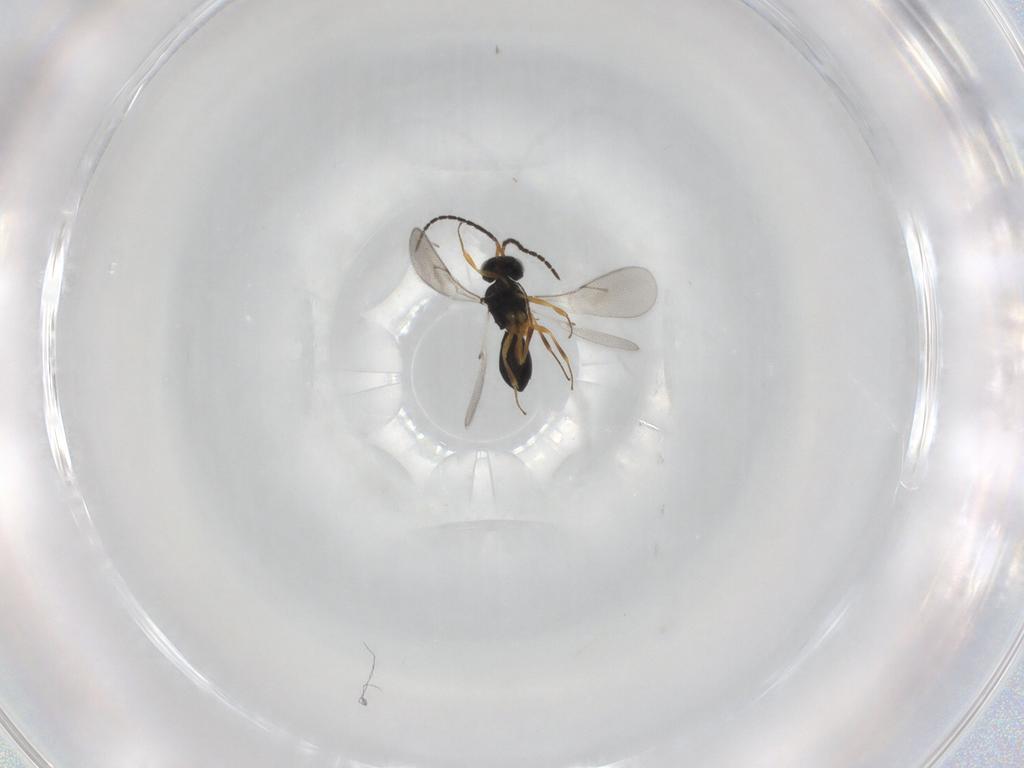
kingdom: Animalia
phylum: Arthropoda
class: Insecta
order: Hymenoptera
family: Scelionidae
